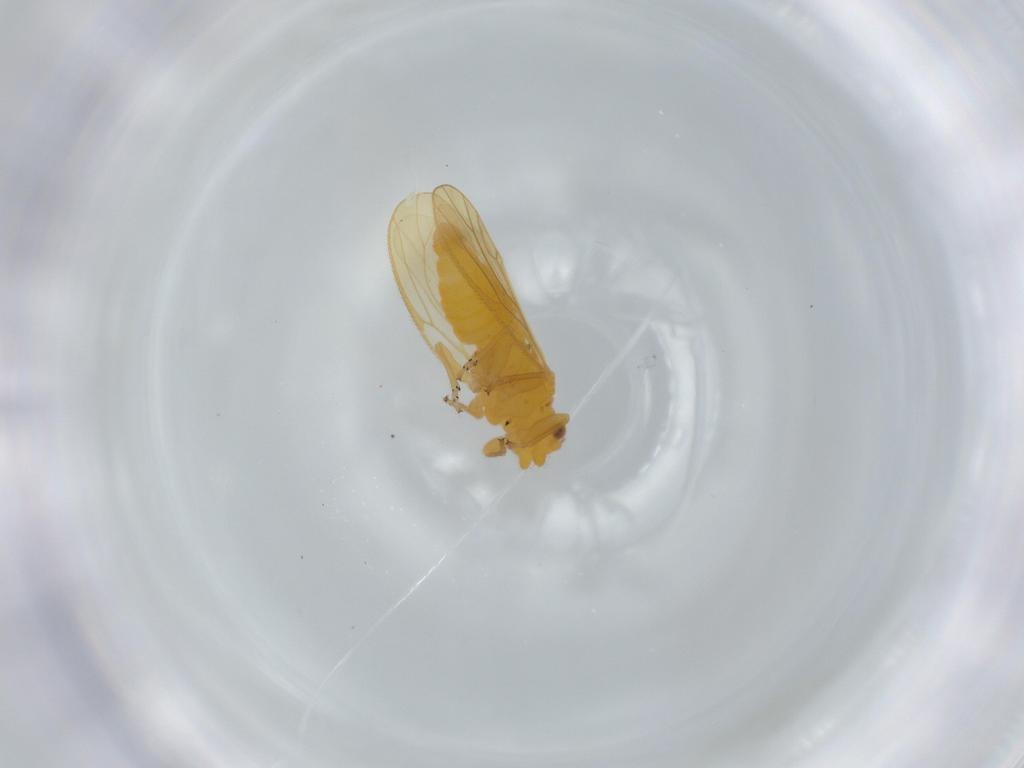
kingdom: Animalia
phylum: Arthropoda
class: Insecta
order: Hemiptera
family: Psyllidae
